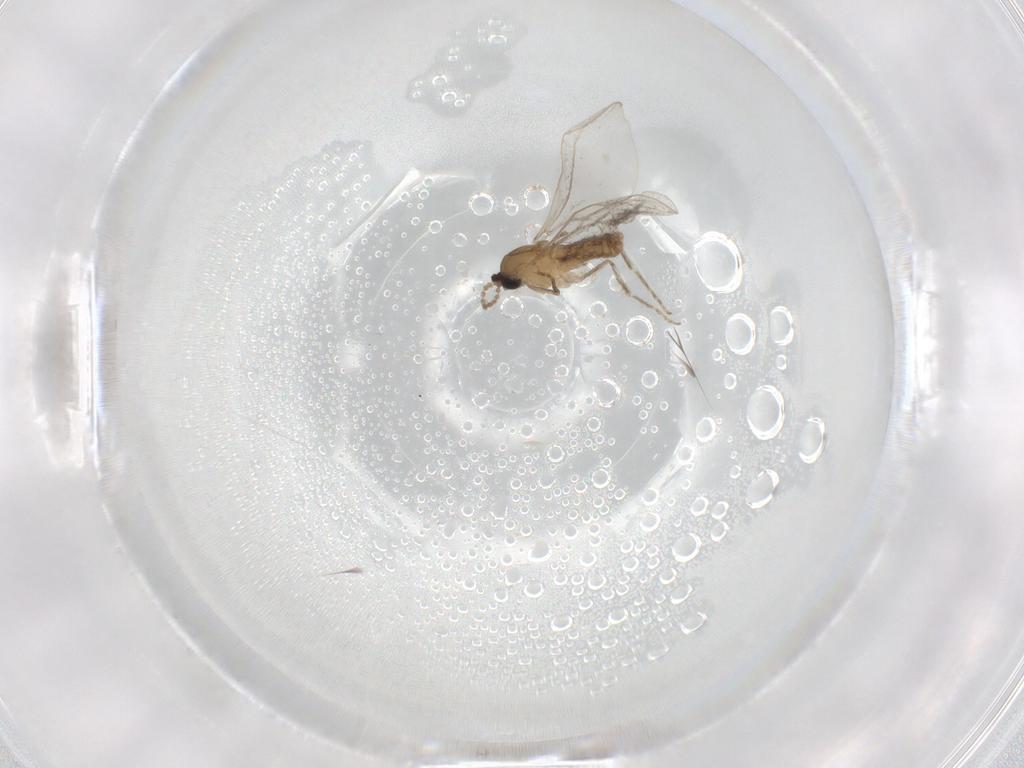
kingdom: Animalia
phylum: Arthropoda
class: Insecta
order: Diptera
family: Cecidomyiidae
